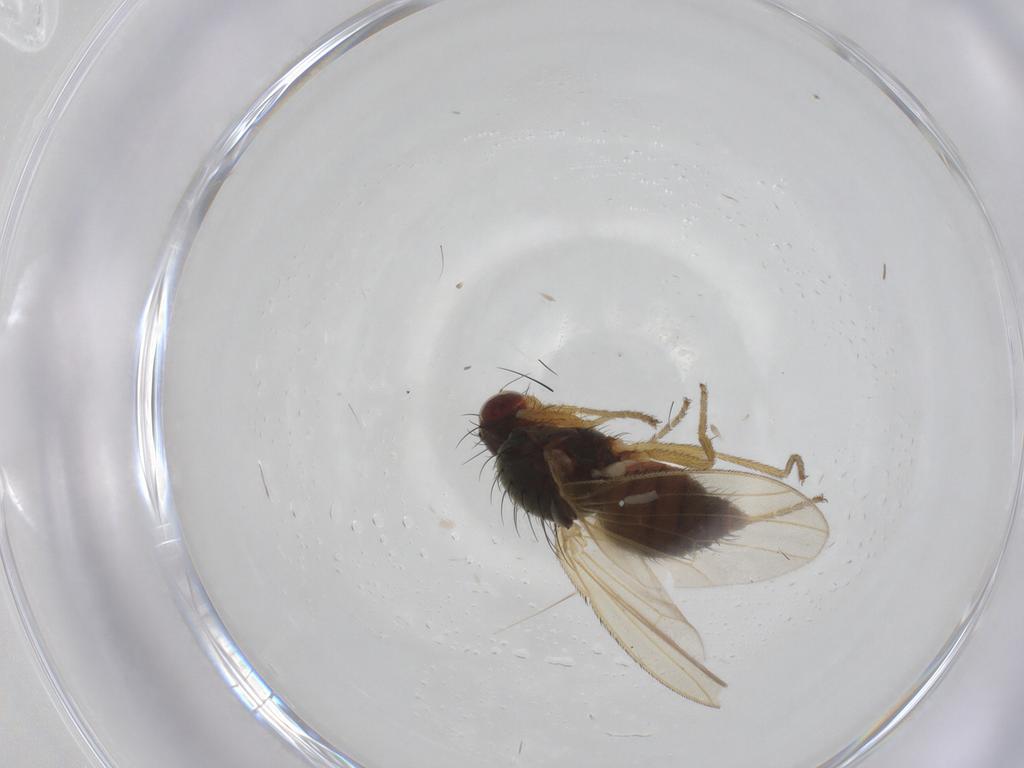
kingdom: Animalia
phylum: Arthropoda
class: Insecta
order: Diptera
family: Heleomyzidae
